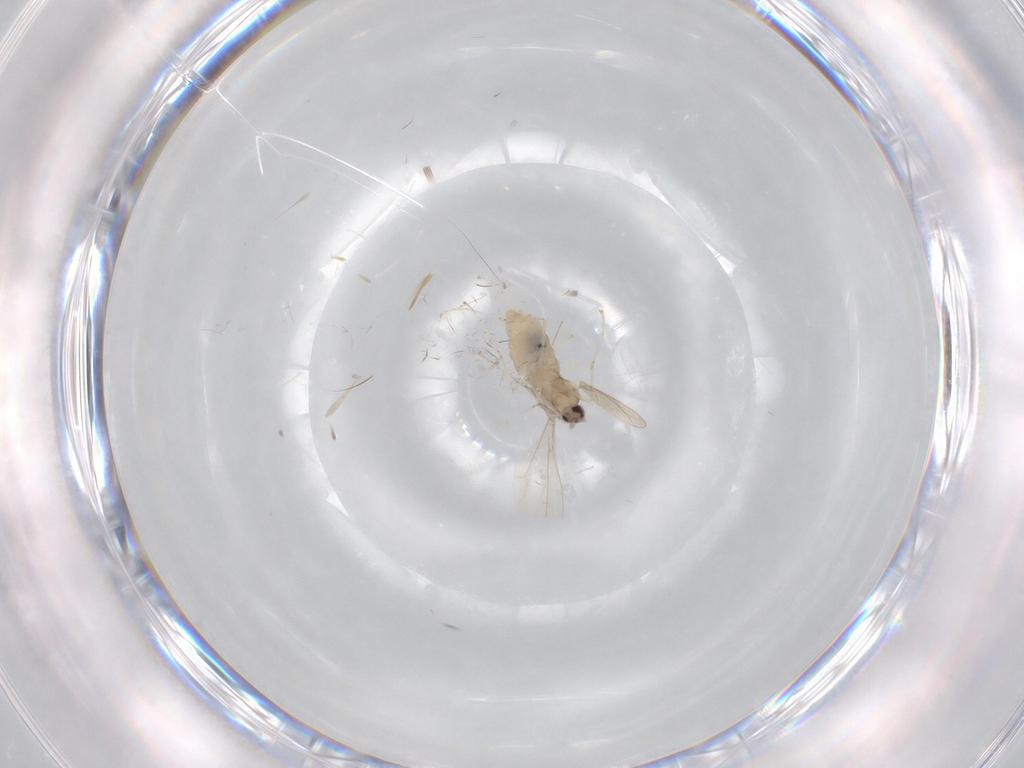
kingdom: Animalia
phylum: Arthropoda
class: Insecta
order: Diptera
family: Cecidomyiidae
